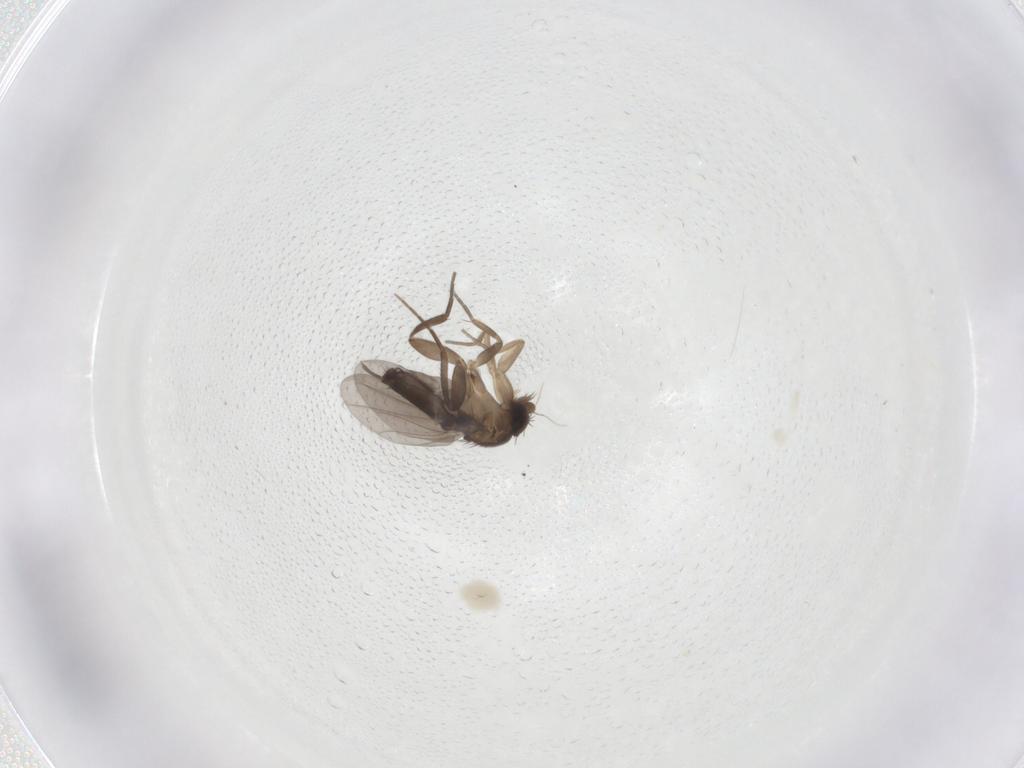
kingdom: Animalia
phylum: Arthropoda
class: Insecta
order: Diptera
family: Phoridae
